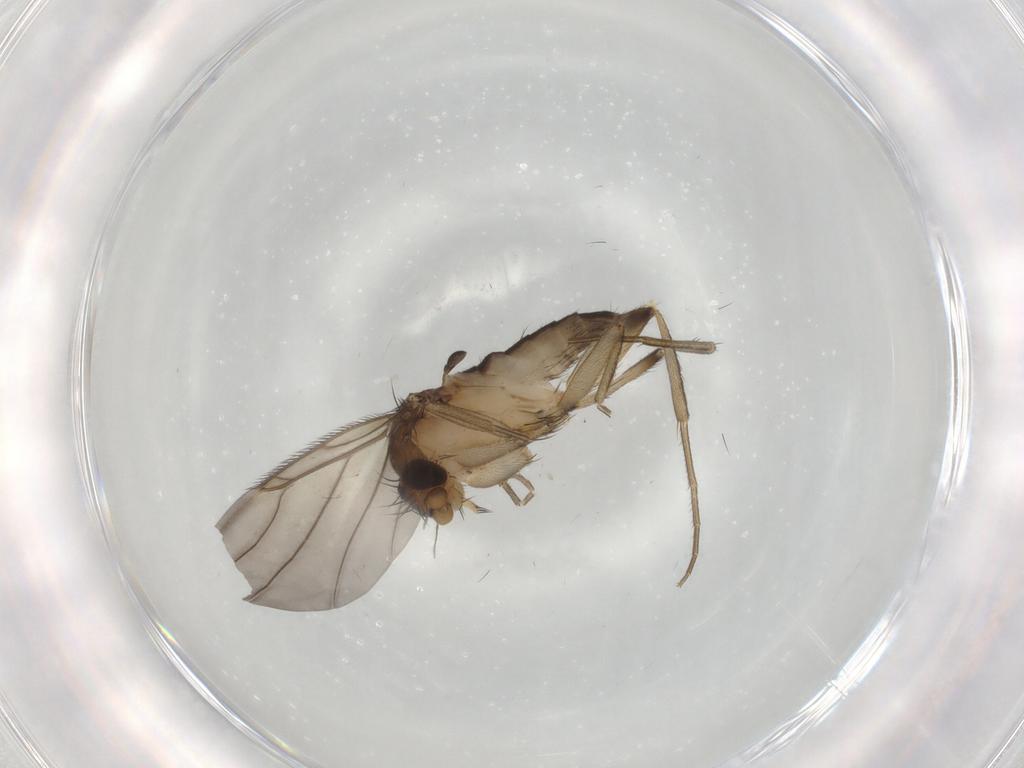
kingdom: Animalia
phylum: Arthropoda
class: Insecta
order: Diptera
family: Phoridae
